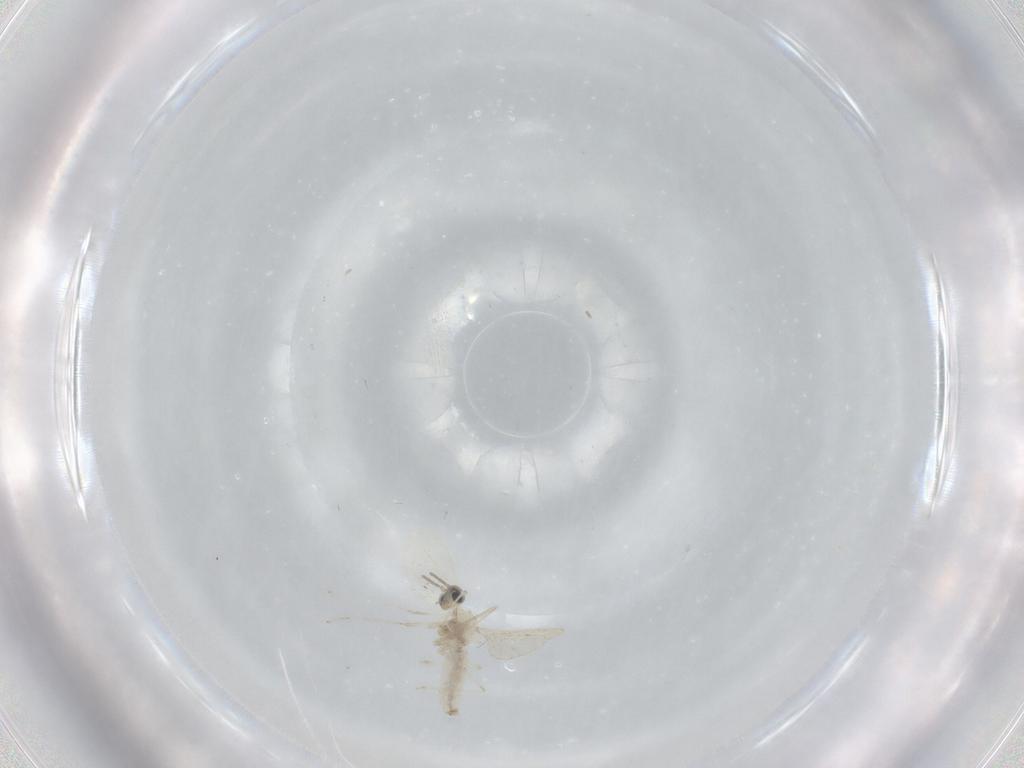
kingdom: Animalia
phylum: Arthropoda
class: Insecta
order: Diptera
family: Cecidomyiidae
